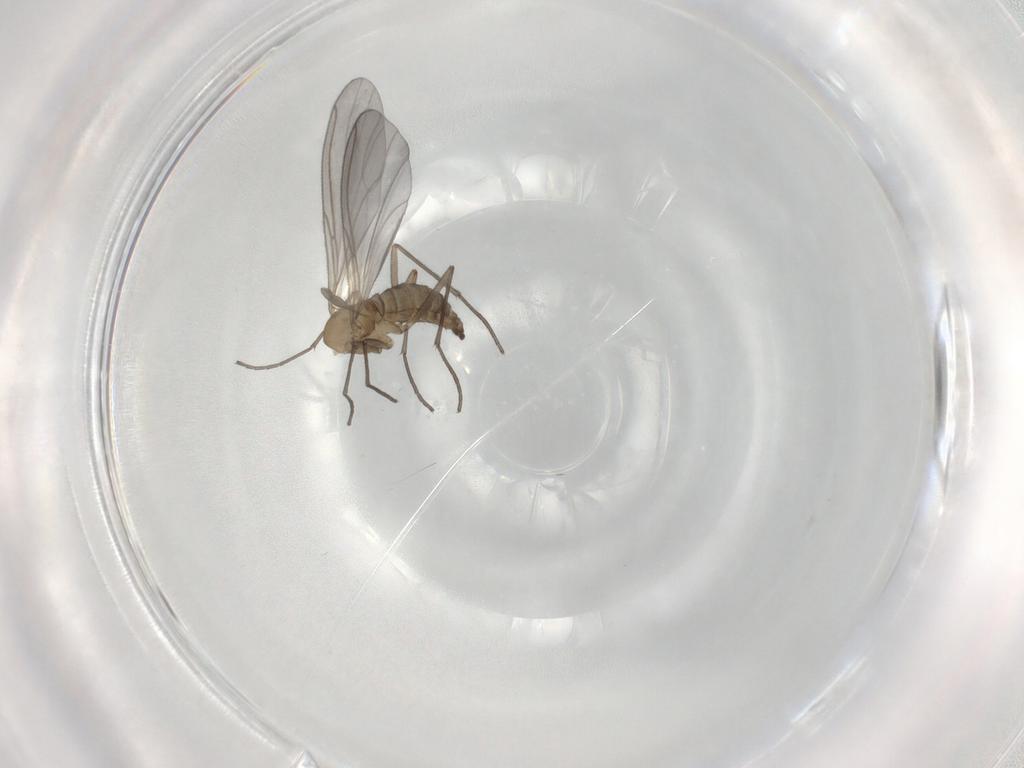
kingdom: Animalia
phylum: Arthropoda
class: Insecta
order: Diptera
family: Sciaridae
